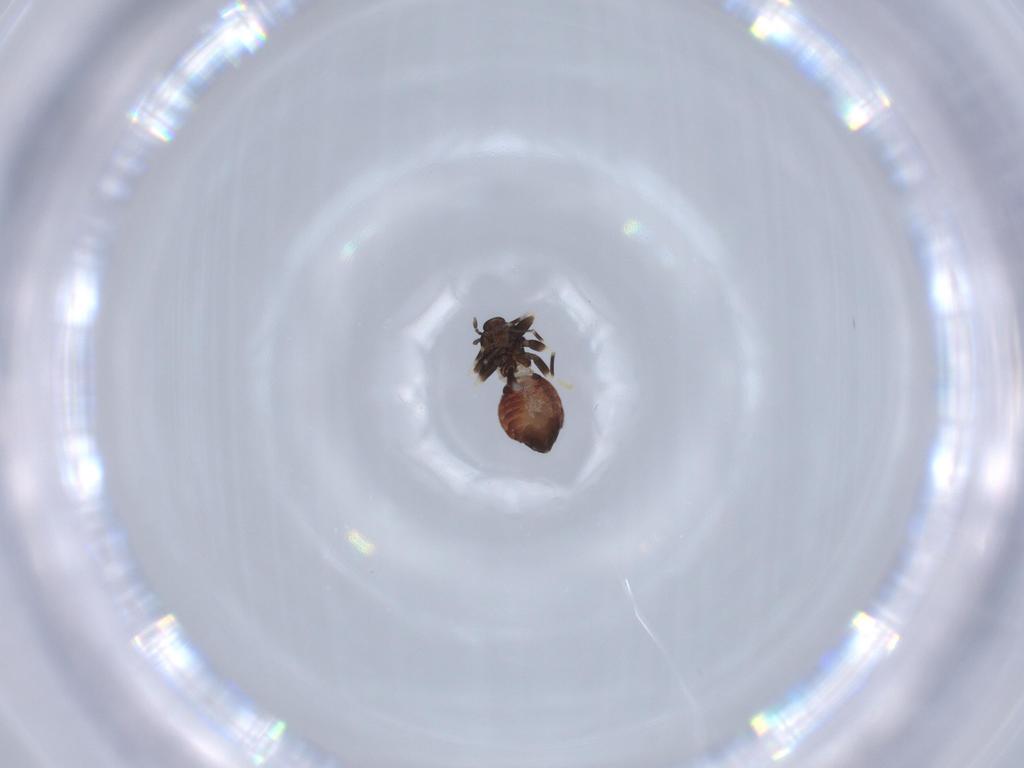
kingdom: Animalia
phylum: Arthropoda
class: Insecta
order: Psocodea
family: Lepidopsocidae
